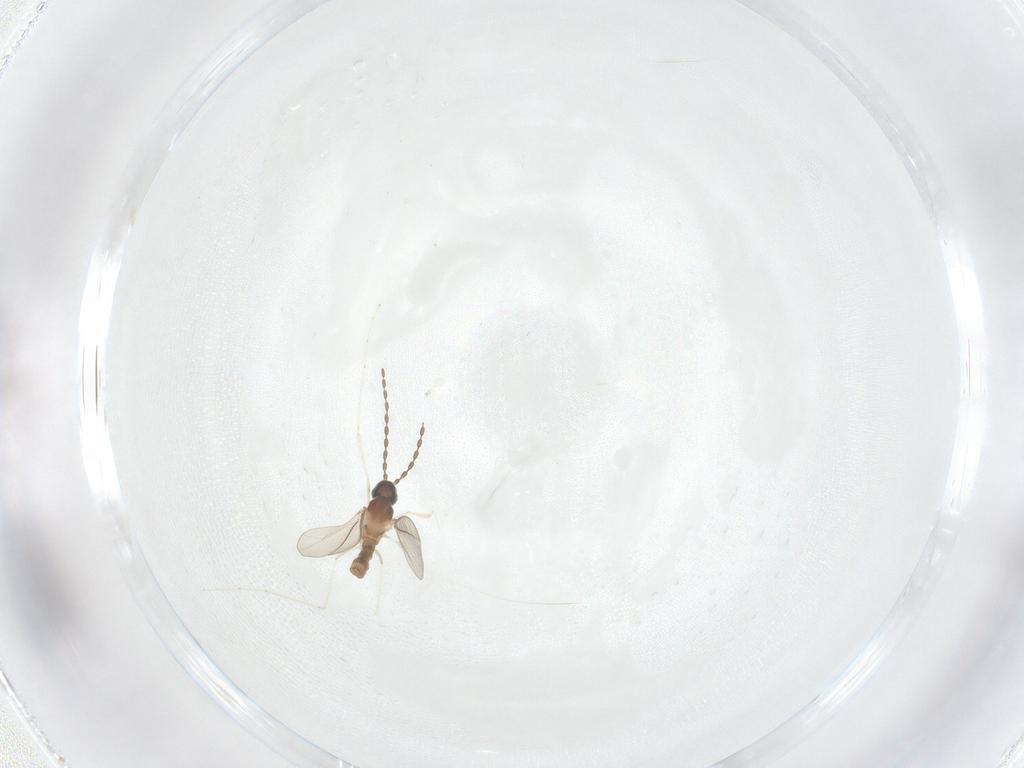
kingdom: Animalia
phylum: Arthropoda
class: Insecta
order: Diptera
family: Cecidomyiidae
